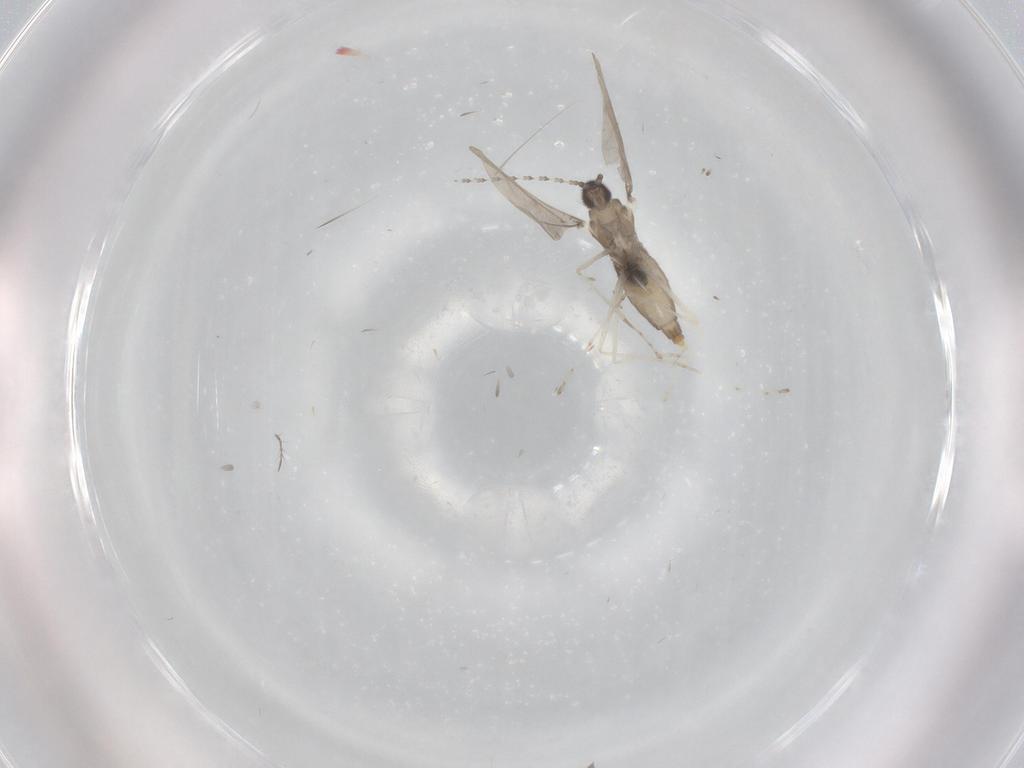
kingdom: Animalia
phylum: Arthropoda
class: Insecta
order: Diptera
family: Cecidomyiidae
